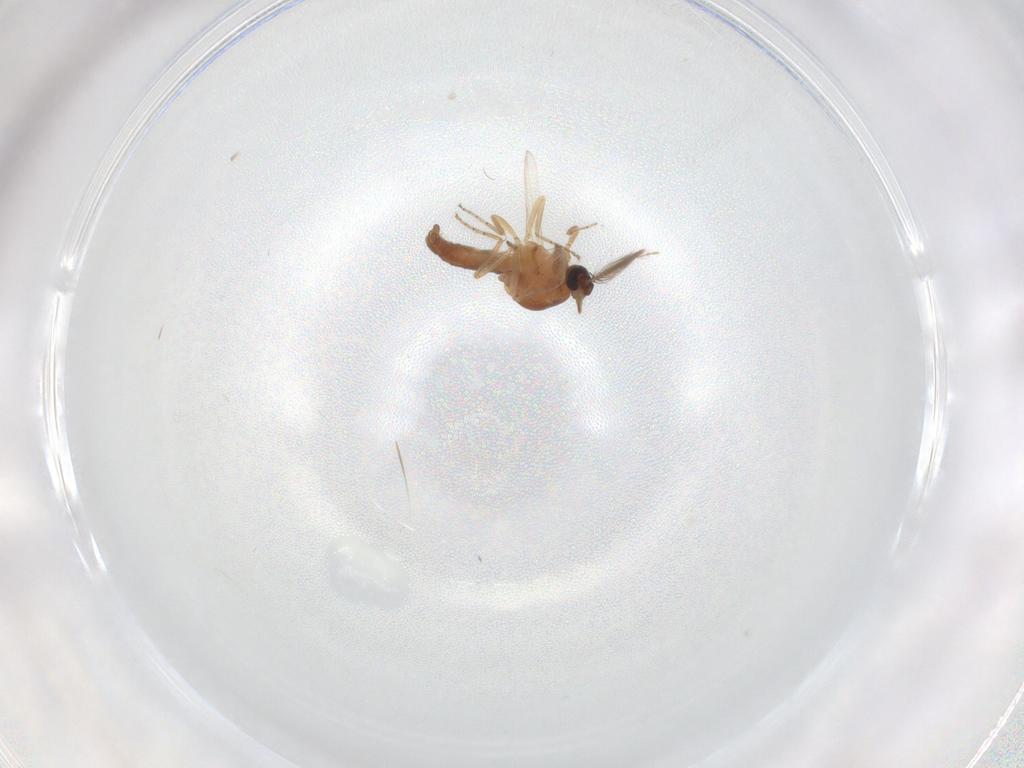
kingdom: Animalia
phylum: Arthropoda
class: Insecta
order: Diptera
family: Ceratopogonidae
